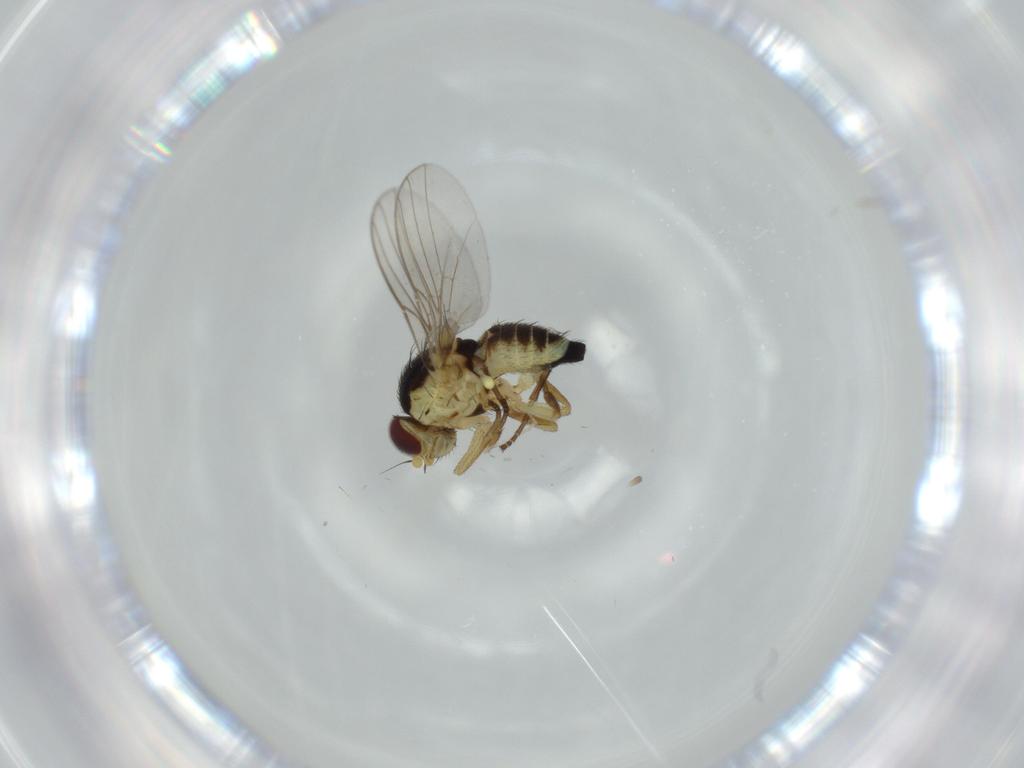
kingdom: Animalia
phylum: Arthropoda
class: Insecta
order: Diptera
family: Agromyzidae
